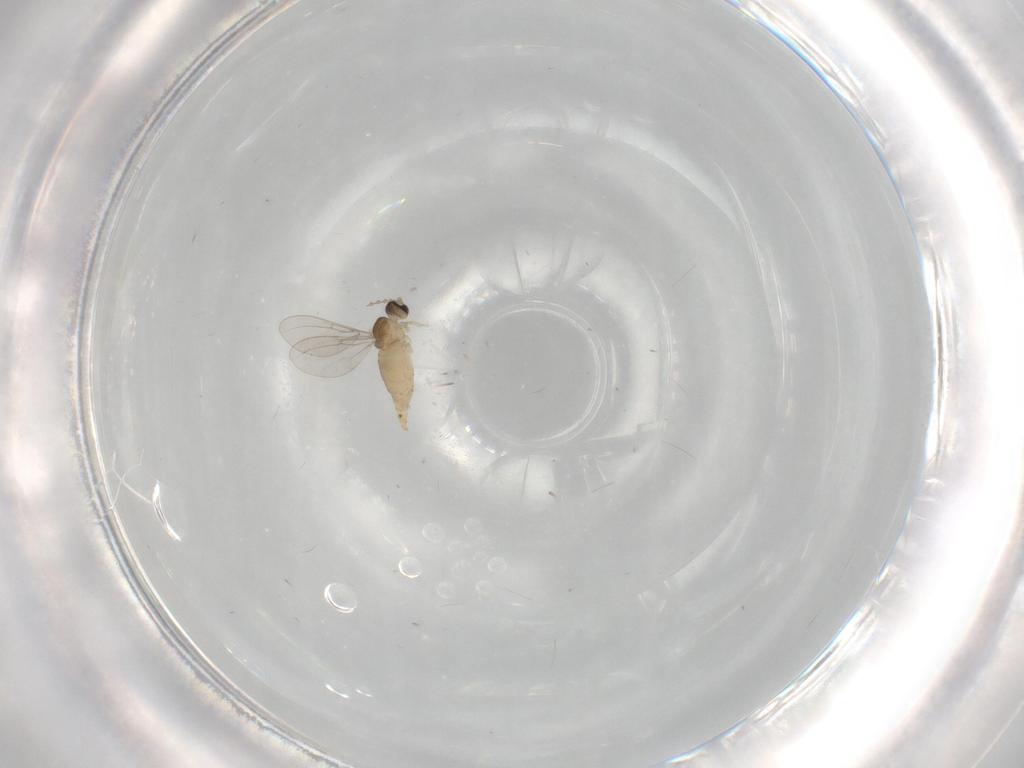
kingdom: Animalia
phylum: Arthropoda
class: Insecta
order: Diptera
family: Cecidomyiidae
